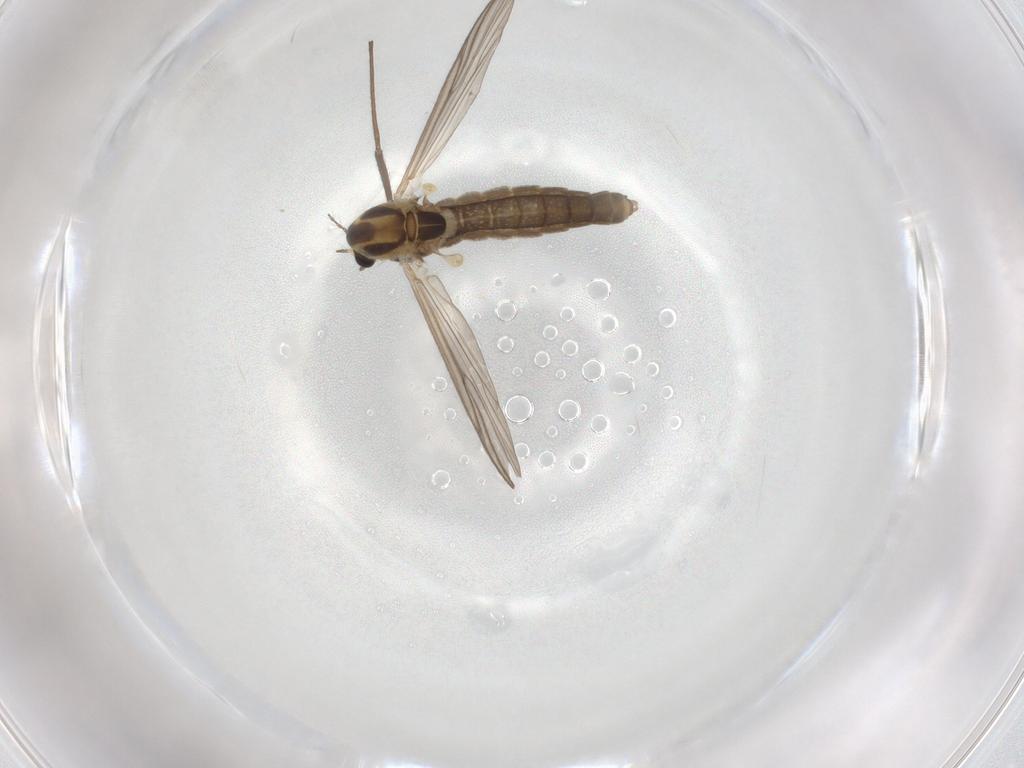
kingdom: Animalia
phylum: Arthropoda
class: Insecta
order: Diptera
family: Chironomidae
